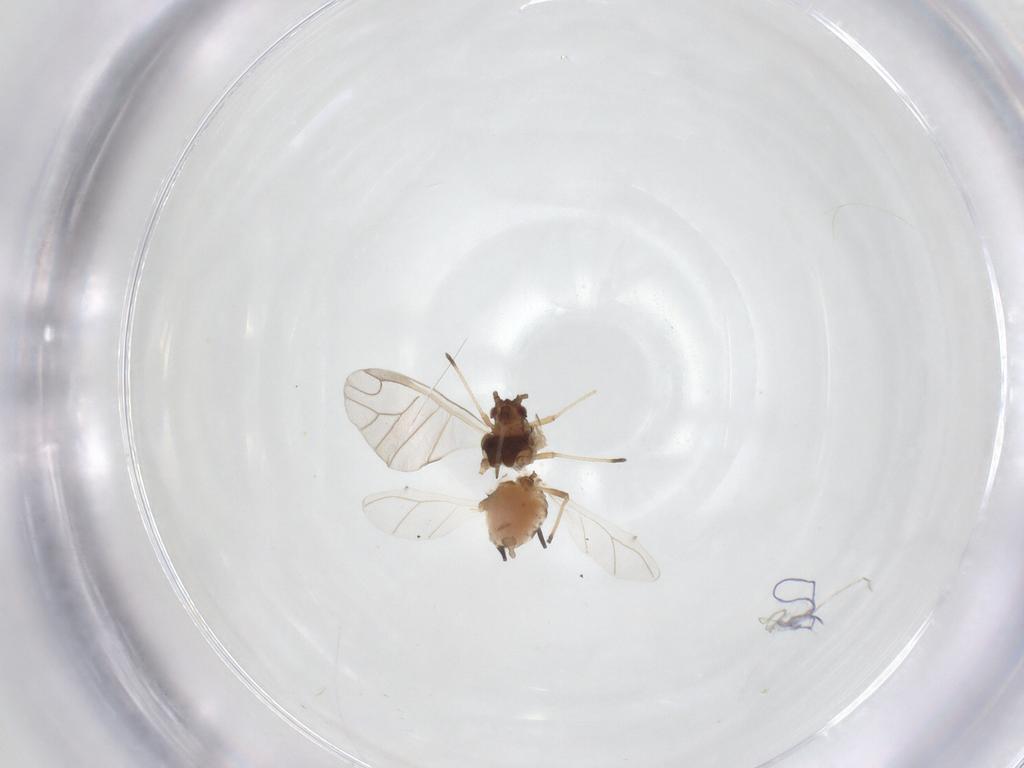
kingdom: Animalia
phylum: Arthropoda
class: Insecta
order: Hemiptera
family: Aphididae
